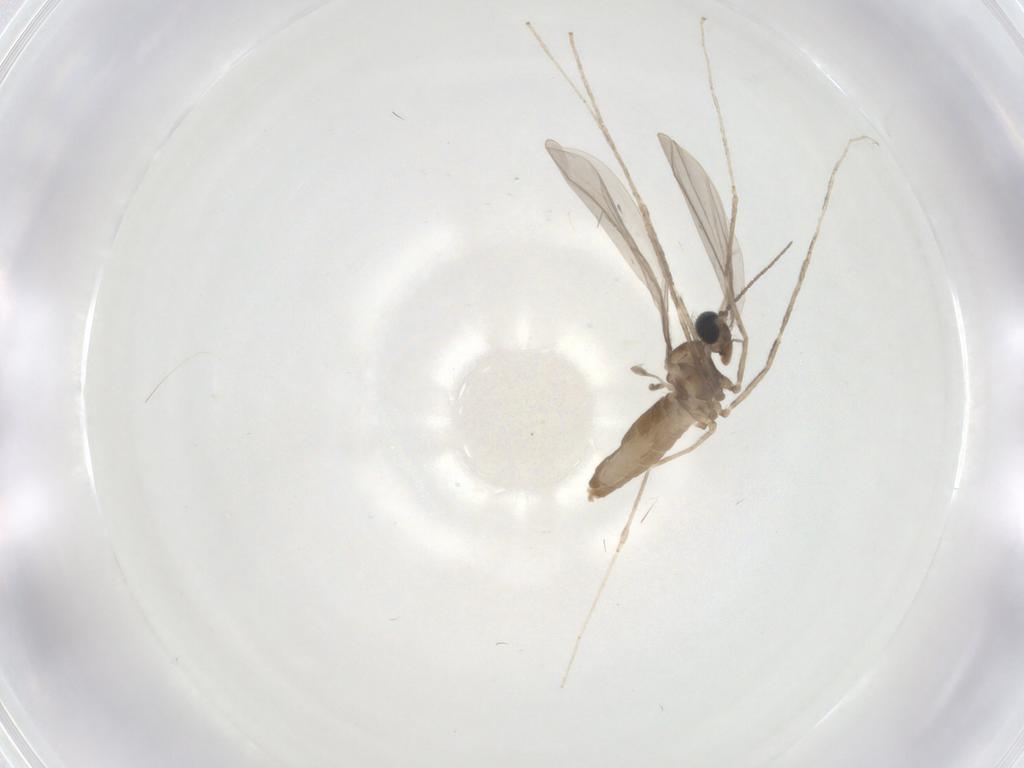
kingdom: Animalia
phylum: Arthropoda
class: Insecta
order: Diptera
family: Cecidomyiidae
